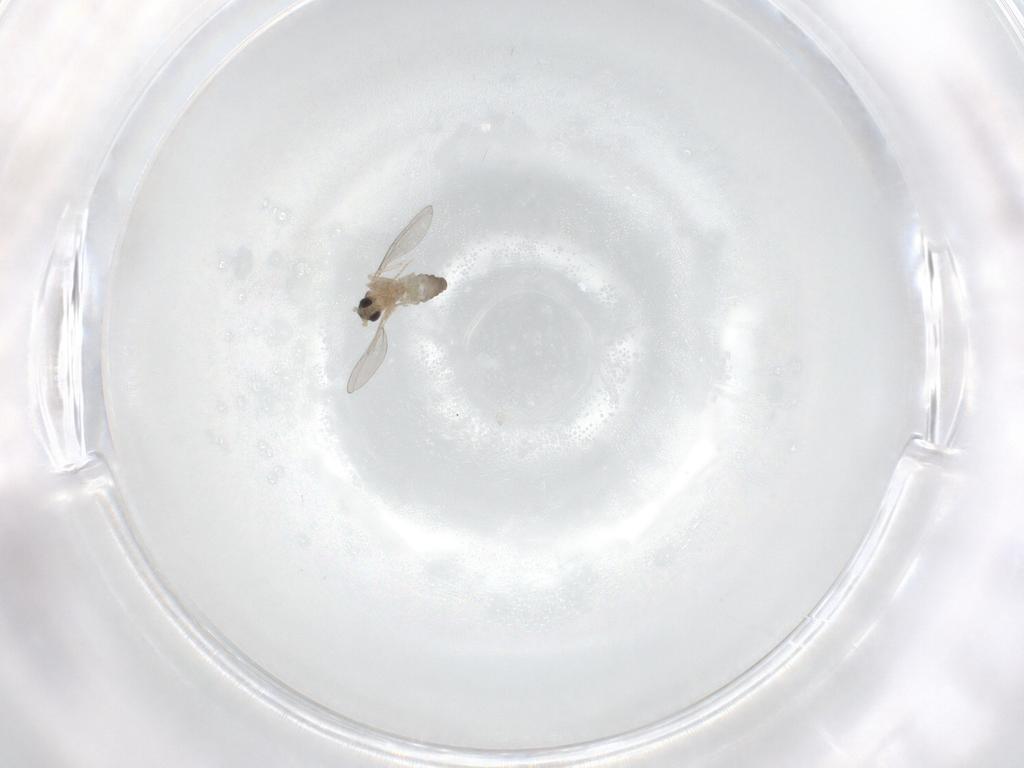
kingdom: Animalia
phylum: Arthropoda
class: Insecta
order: Diptera
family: Cecidomyiidae
